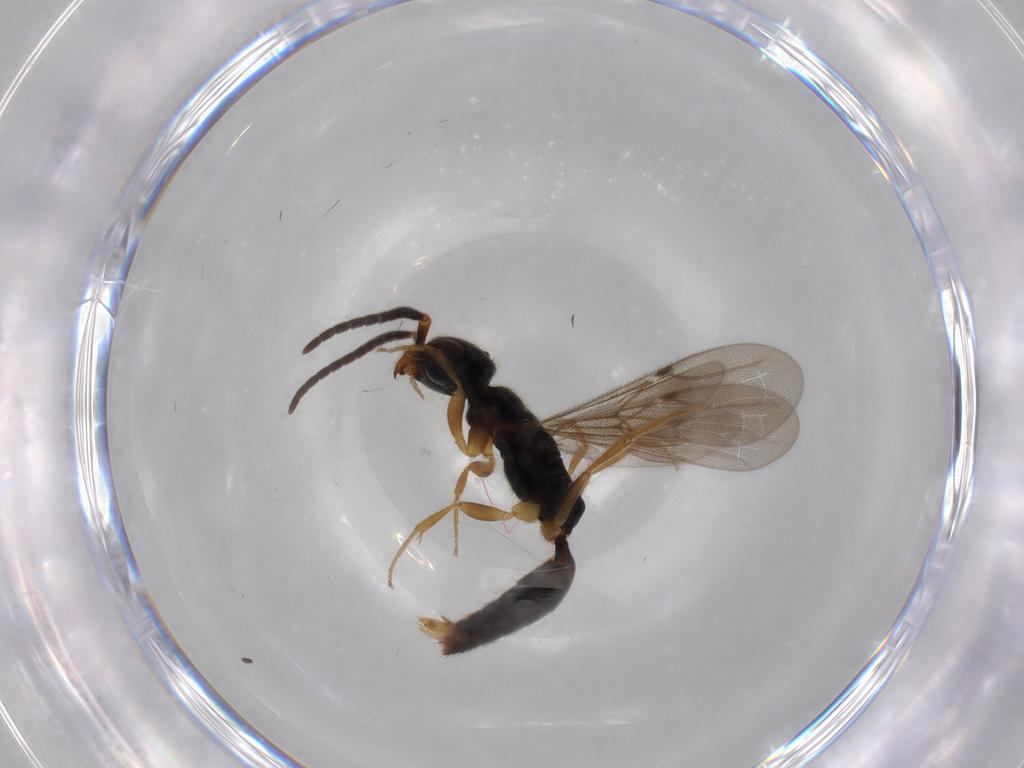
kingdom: Animalia
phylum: Arthropoda
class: Insecta
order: Hymenoptera
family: Bethylidae
